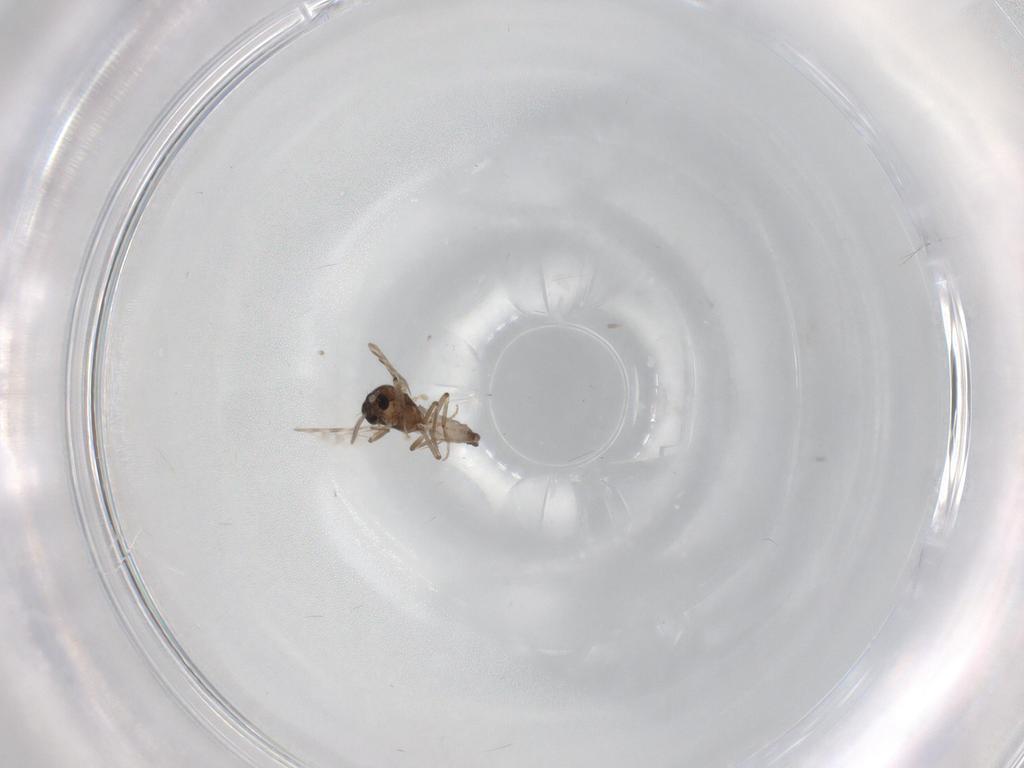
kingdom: Animalia
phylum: Arthropoda
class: Insecta
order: Diptera
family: Ceratopogonidae
